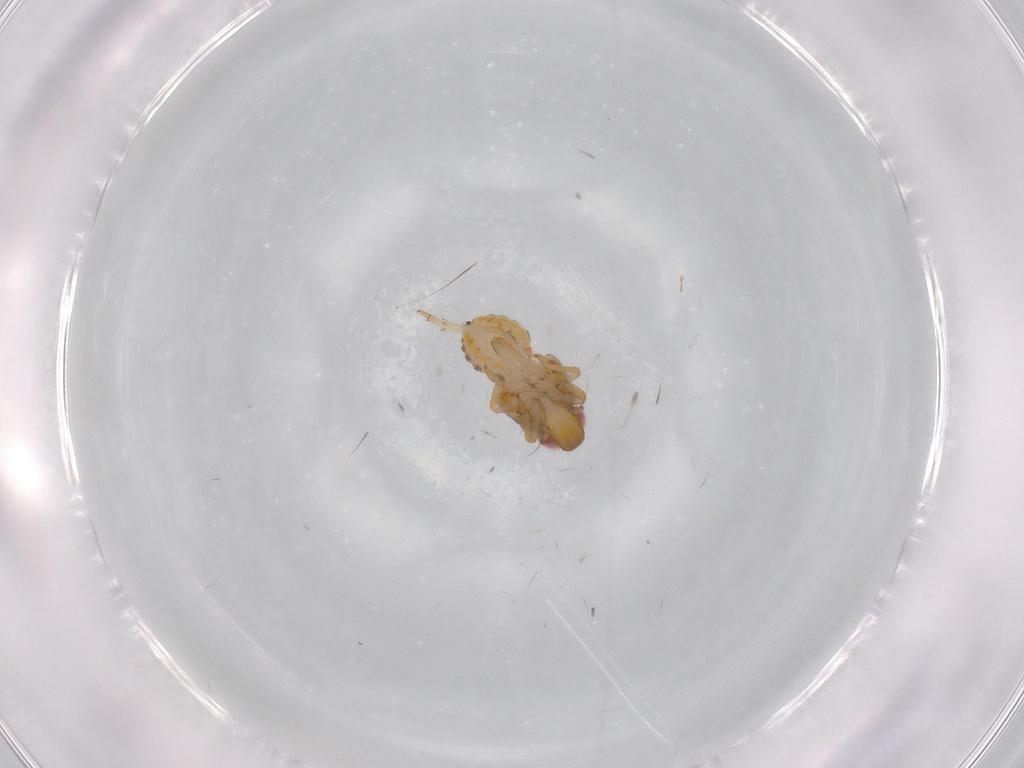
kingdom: Animalia
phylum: Arthropoda
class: Insecta
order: Hemiptera
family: Issidae
